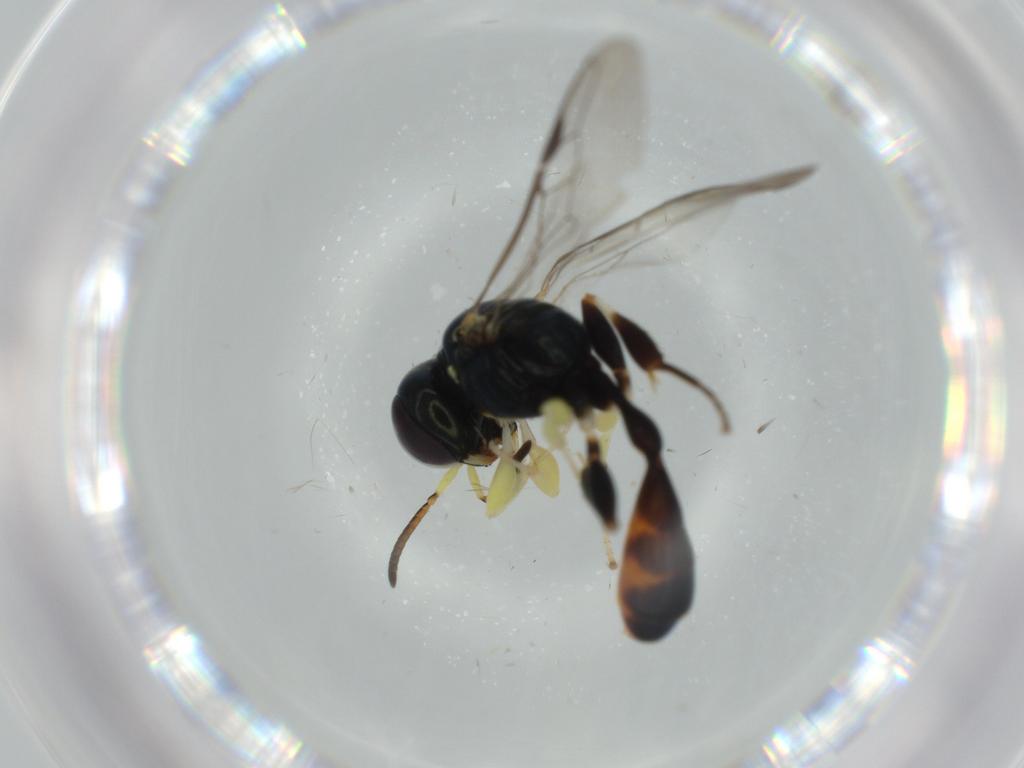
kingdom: Animalia
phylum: Arthropoda
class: Insecta
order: Hymenoptera
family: Crabronidae
